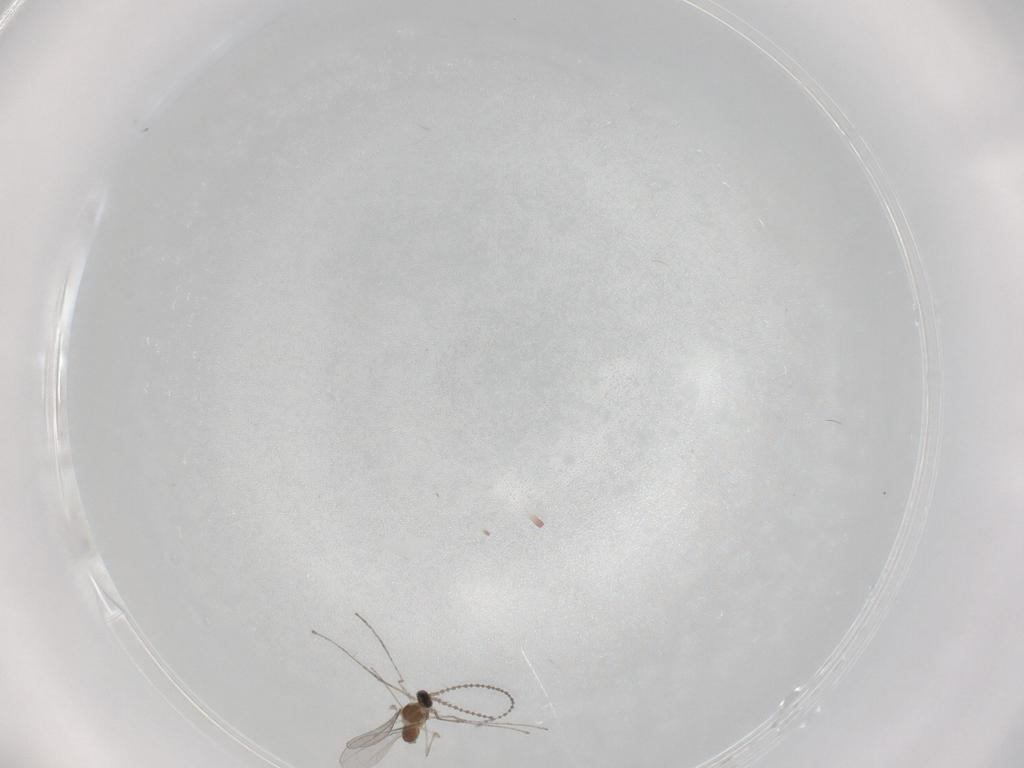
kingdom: Animalia
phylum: Arthropoda
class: Insecta
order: Diptera
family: Cecidomyiidae
